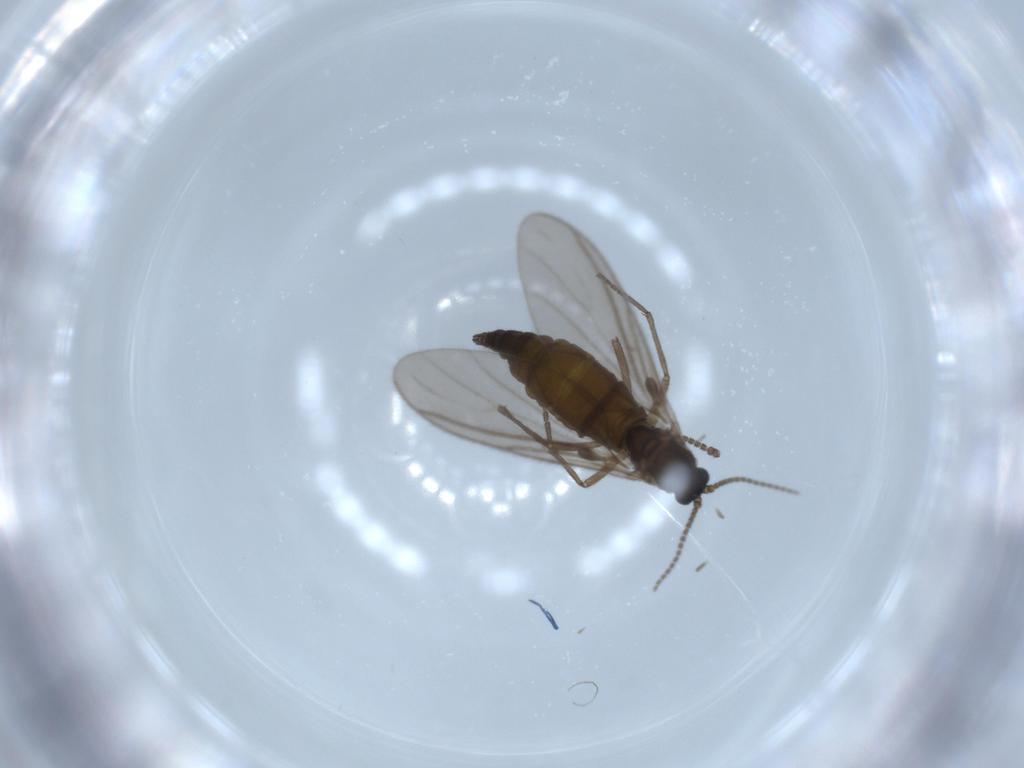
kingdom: Animalia
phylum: Arthropoda
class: Insecta
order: Diptera
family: Sciaridae
